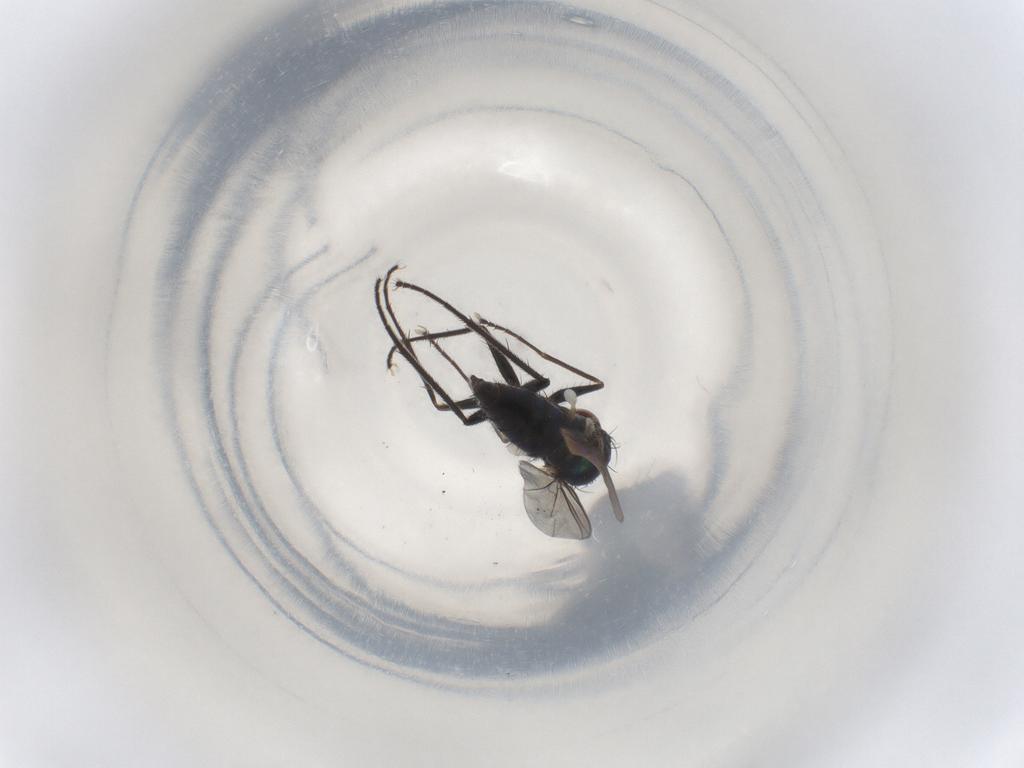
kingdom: Animalia
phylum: Arthropoda
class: Insecta
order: Diptera
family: Dolichopodidae
